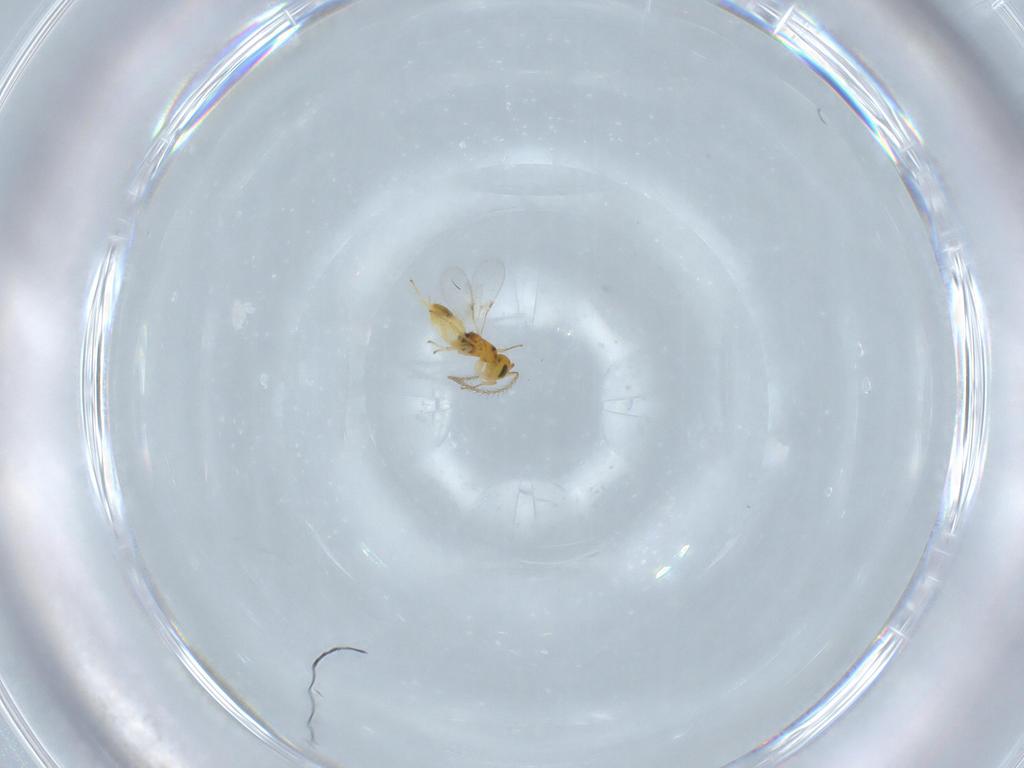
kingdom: Animalia
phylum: Arthropoda
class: Insecta
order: Hymenoptera
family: Encyrtidae
